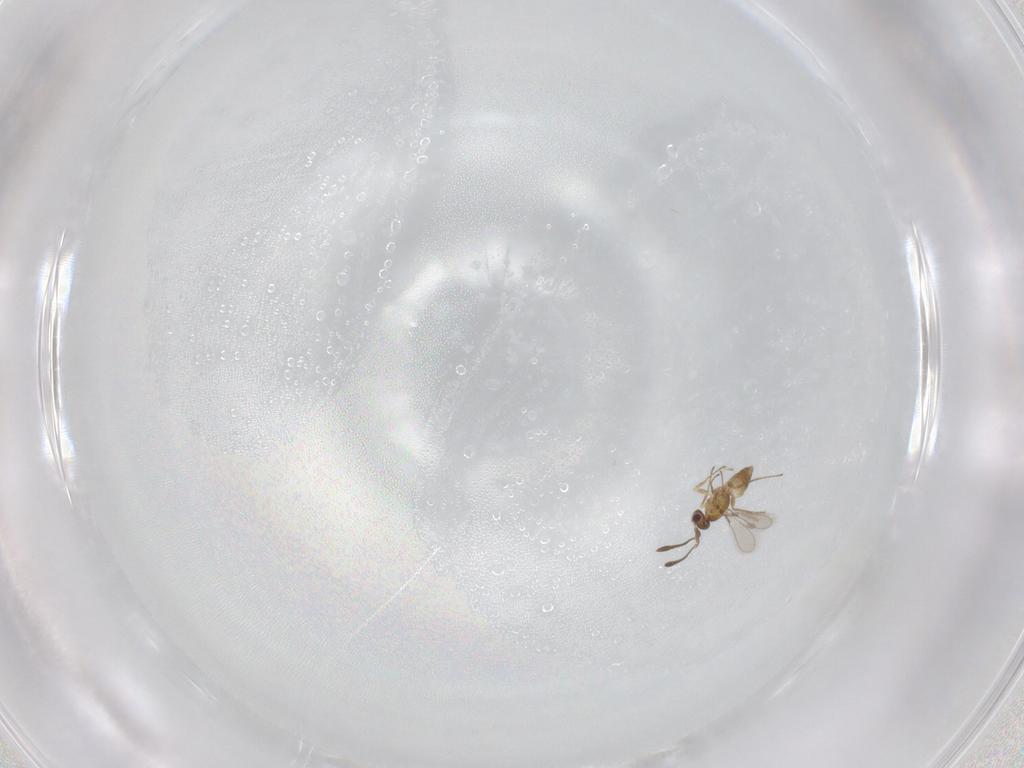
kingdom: Animalia
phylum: Arthropoda
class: Insecta
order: Hymenoptera
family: Mymaridae
